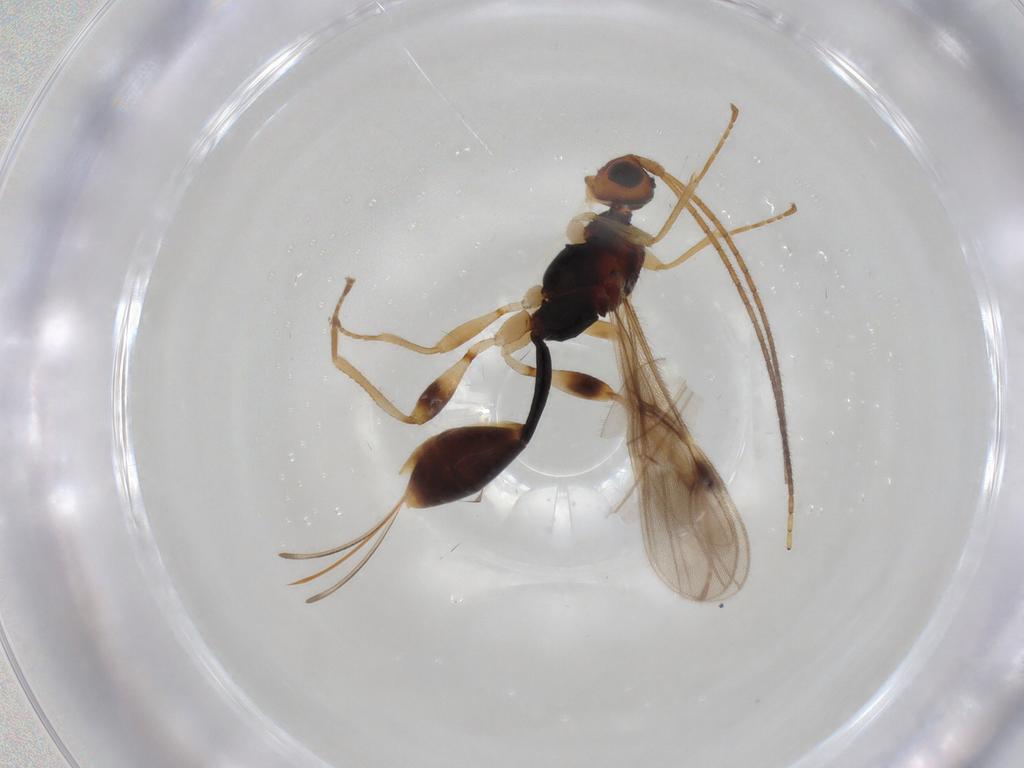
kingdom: Animalia
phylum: Arthropoda
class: Insecta
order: Hymenoptera
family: Braconidae
